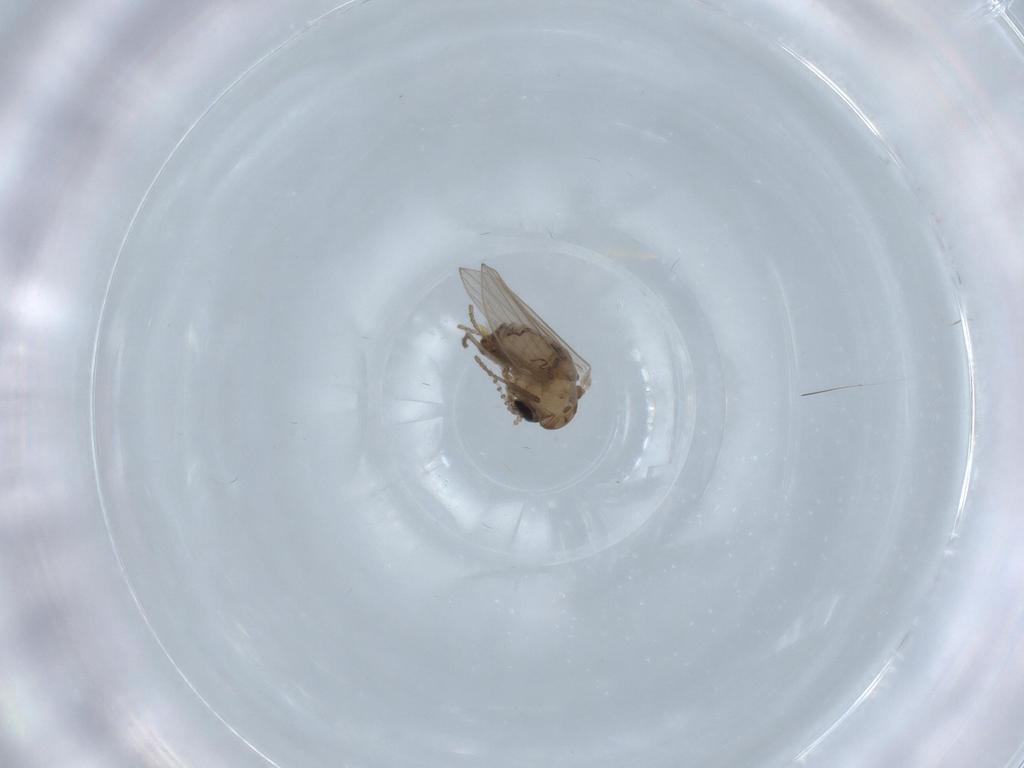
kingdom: Animalia
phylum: Arthropoda
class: Insecta
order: Diptera
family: Psychodidae
